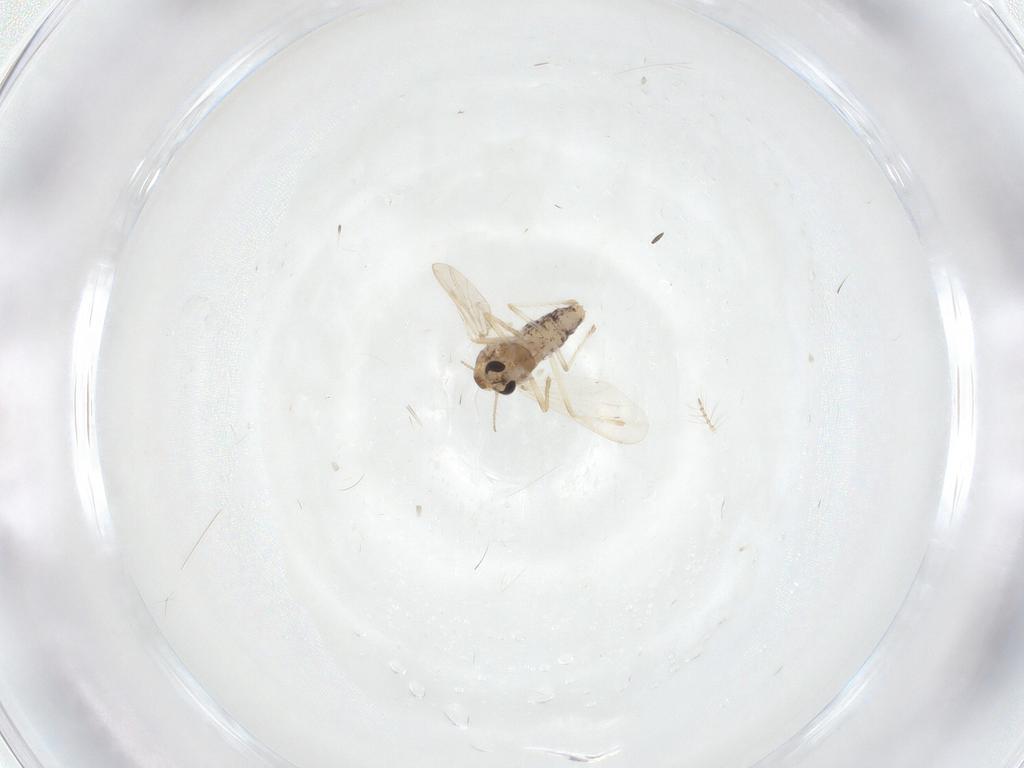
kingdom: Animalia
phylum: Arthropoda
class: Insecta
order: Diptera
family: Chironomidae
